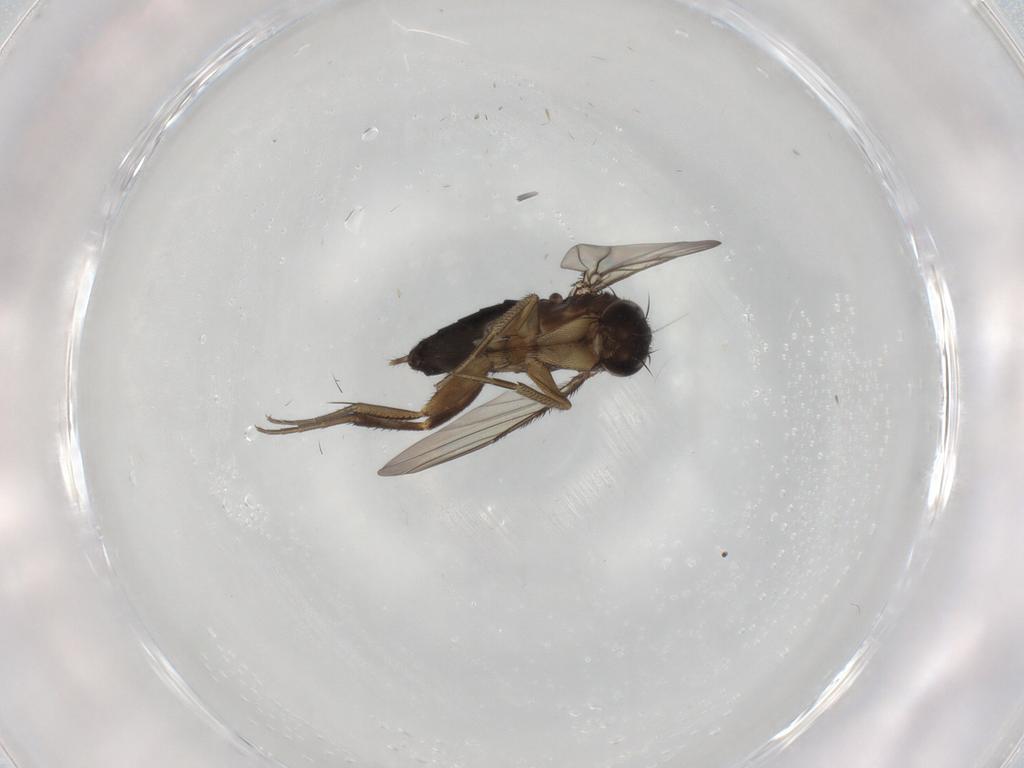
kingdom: Animalia
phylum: Arthropoda
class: Insecta
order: Diptera
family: Phoridae
